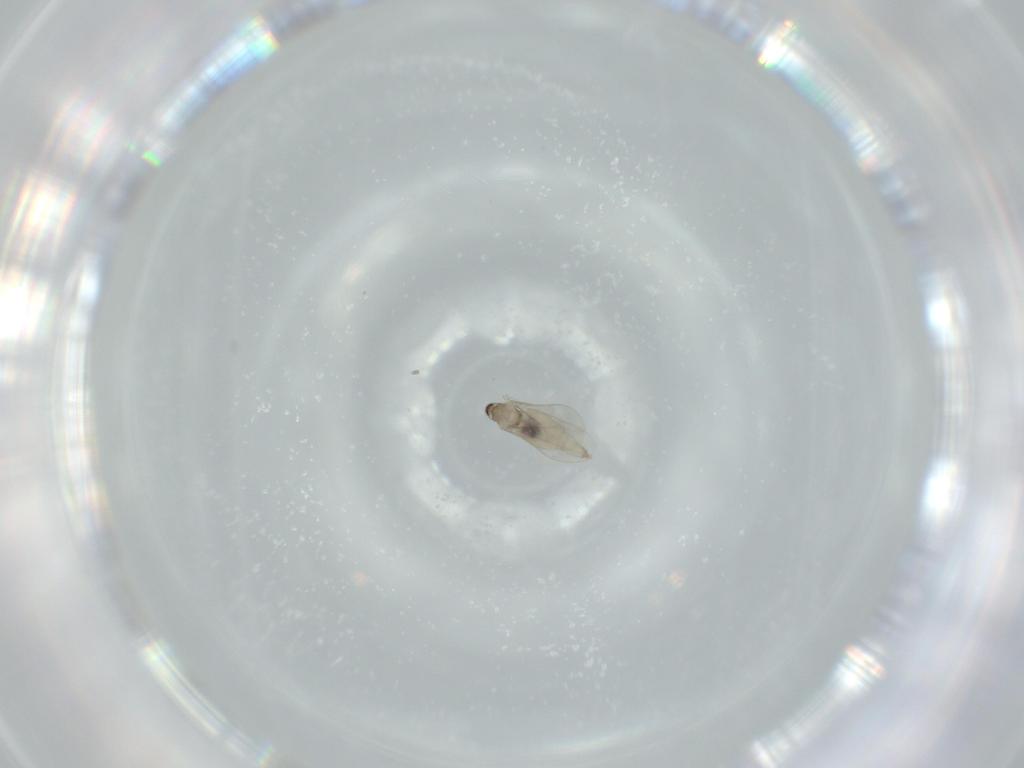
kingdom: Animalia
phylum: Arthropoda
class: Insecta
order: Diptera
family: Cecidomyiidae
